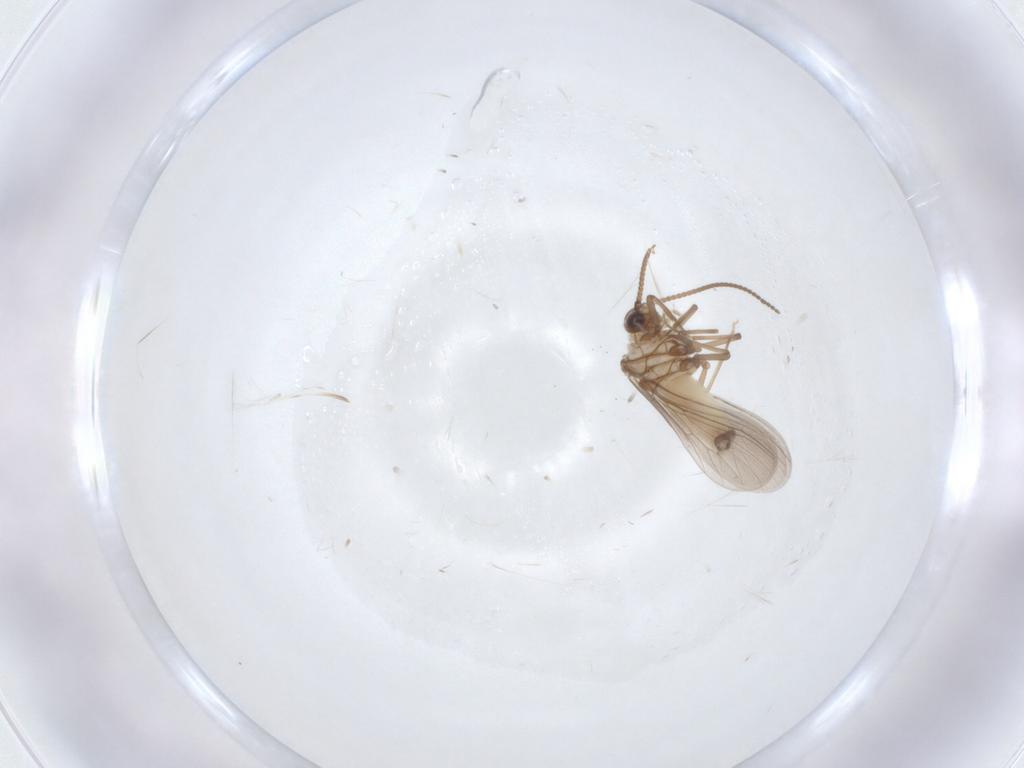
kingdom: Animalia
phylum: Arthropoda
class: Insecta
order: Neuroptera
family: Coniopterygidae
